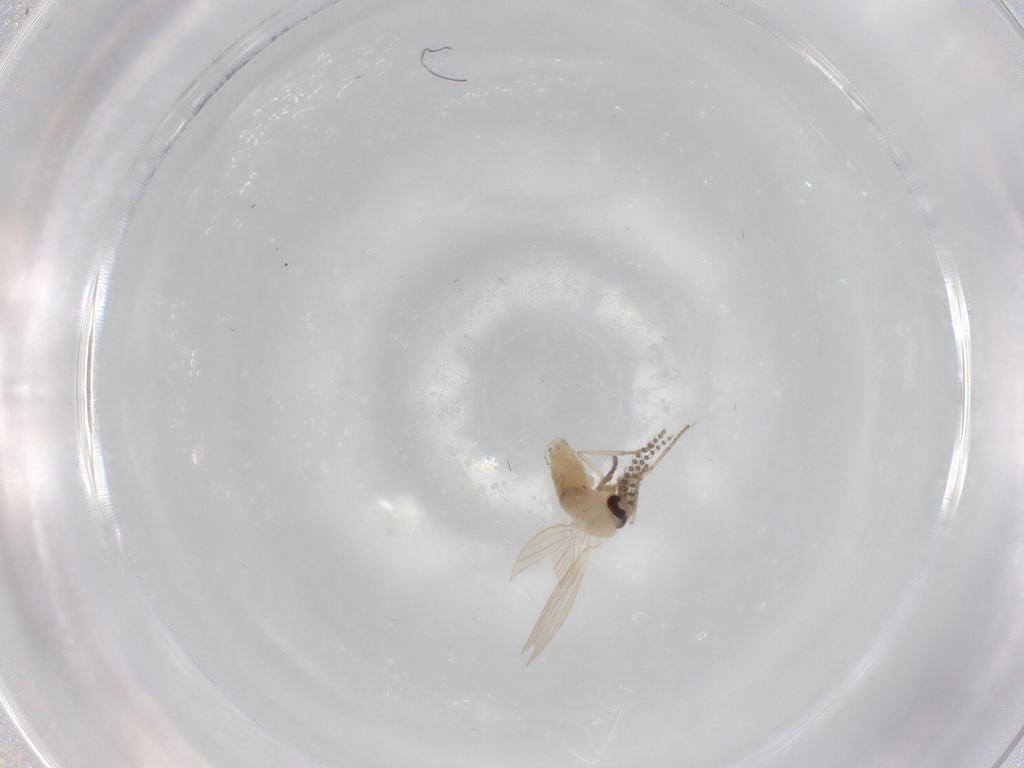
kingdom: Animalia
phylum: Arthropoda
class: Insecta
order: Diptera
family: Psychodidae
